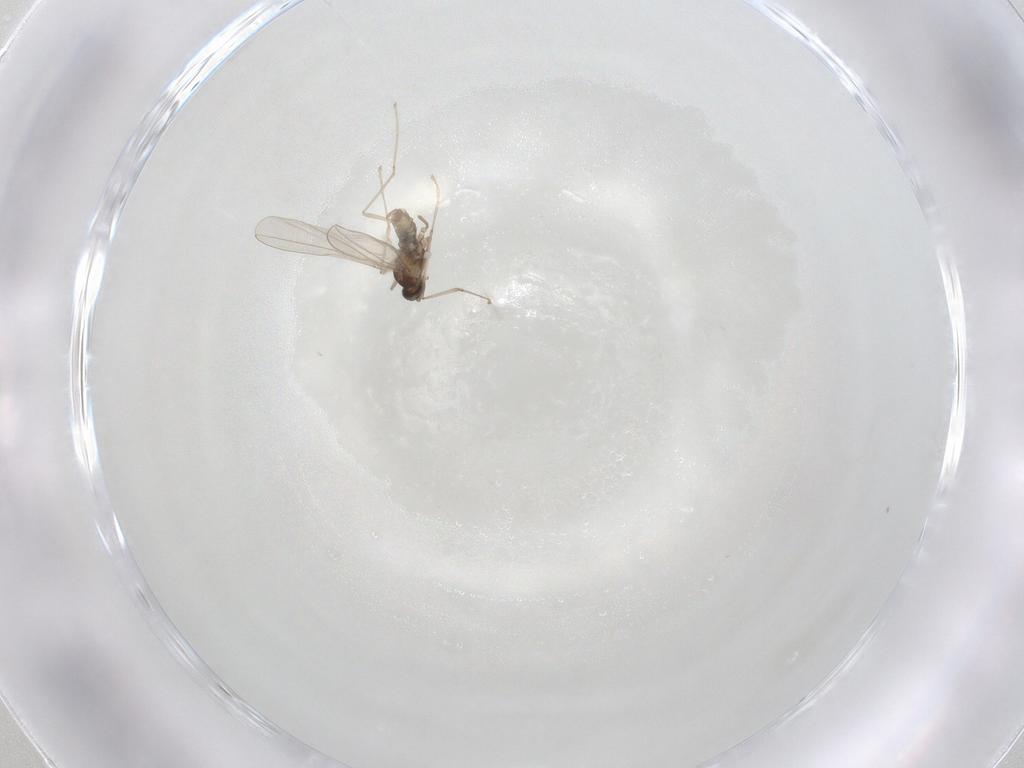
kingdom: Animalia
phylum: Arthropoda
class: Insecta
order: Diptera
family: Cecidomyiidae
